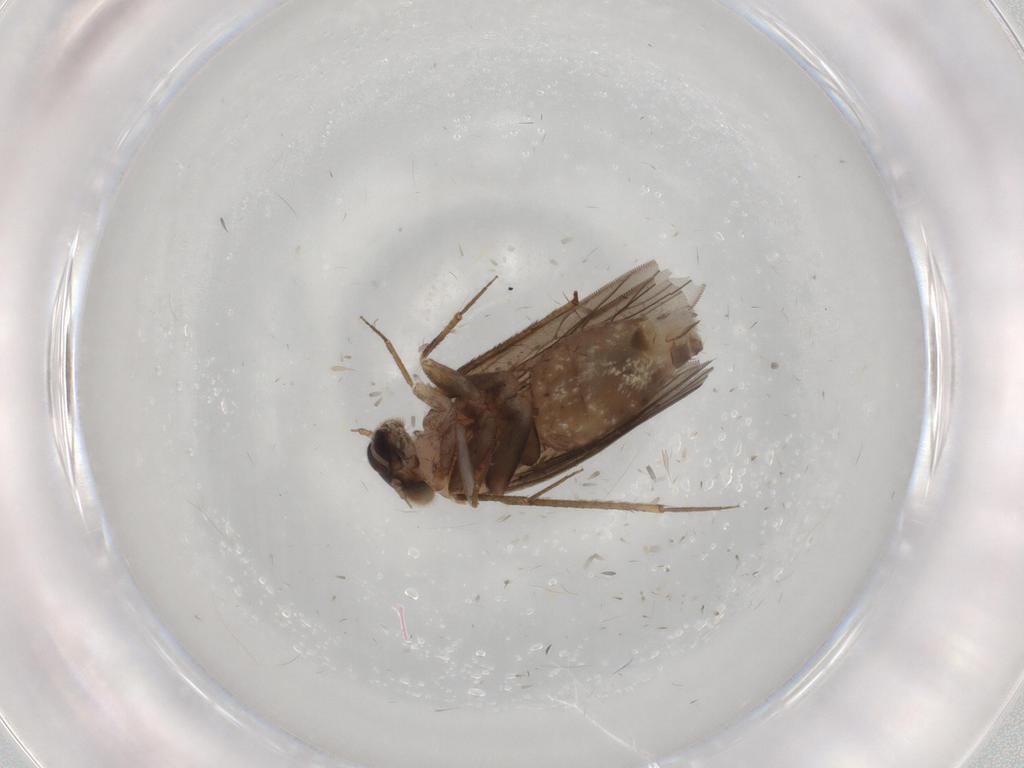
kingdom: Animalia
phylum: Arthropoda
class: Insecta
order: Psocodea
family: Lepidopsocidae
